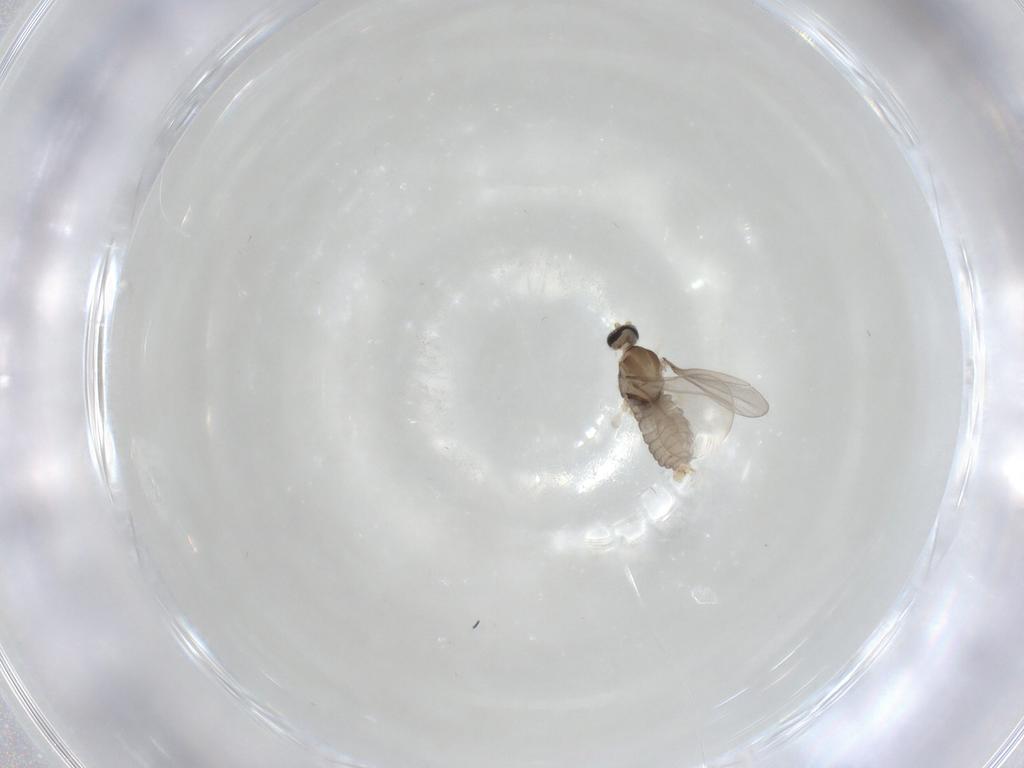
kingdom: Animalia
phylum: Arthropoda
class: Insecta
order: Diptera
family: Cecidomyiidae
